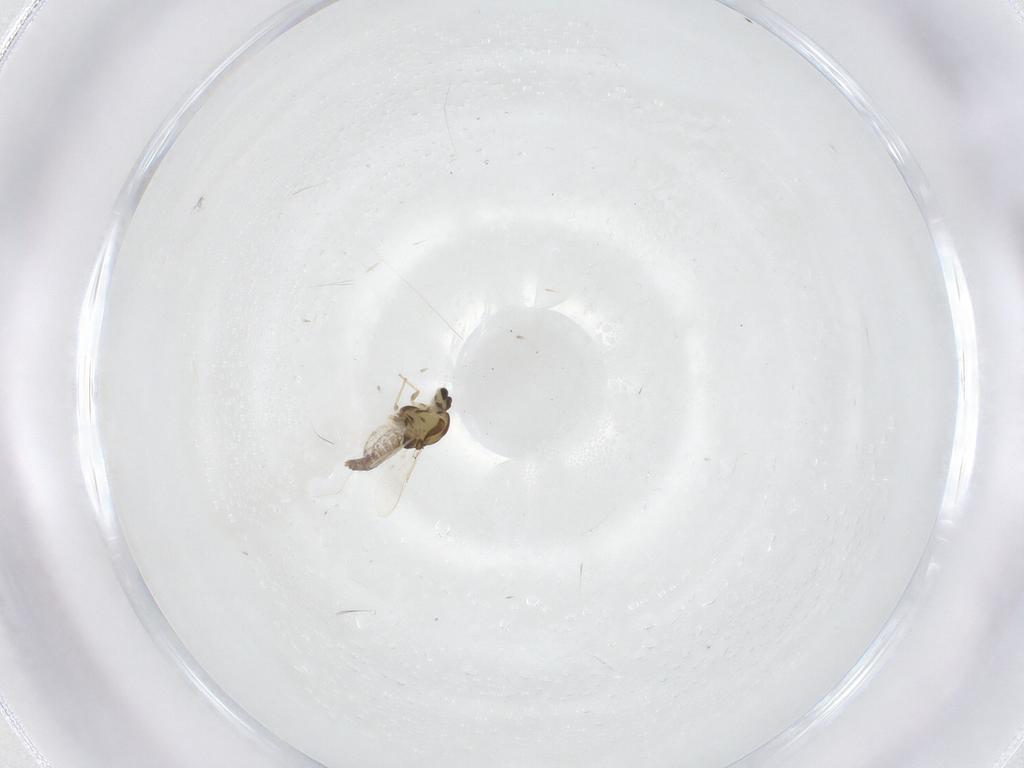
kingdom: Animalia
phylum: Arthropoda
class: Insecta
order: Diptera
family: Chironomidae
